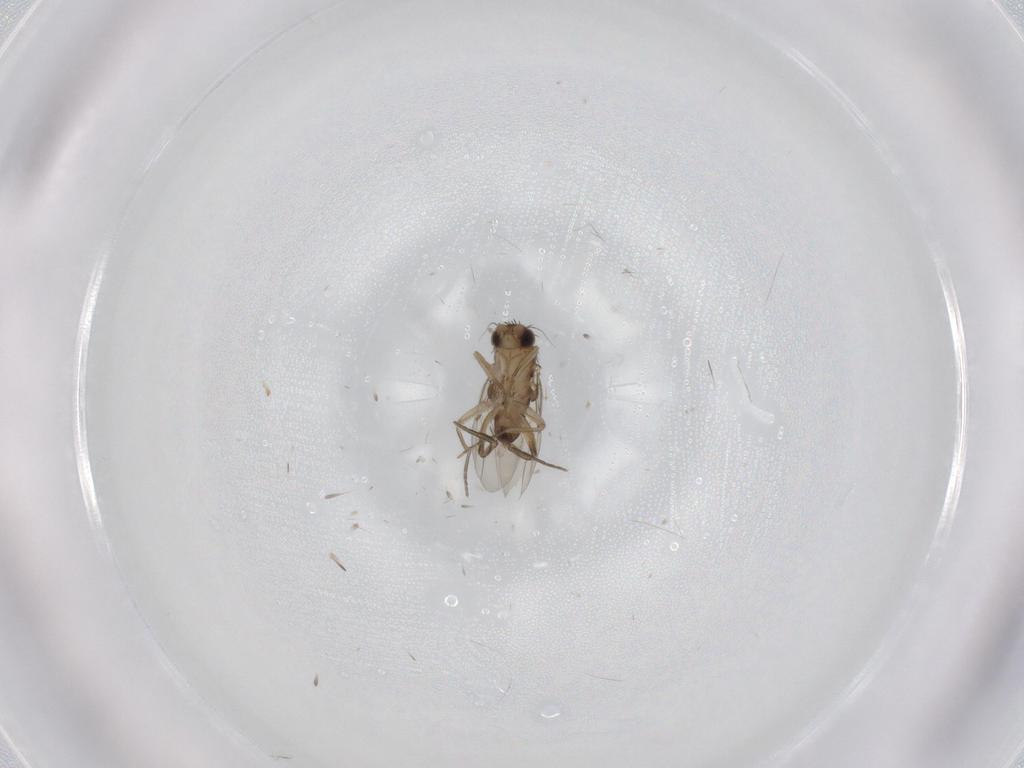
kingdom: Animalia
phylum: Arthropoda
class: Insecta
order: Diptera
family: Phoridae
